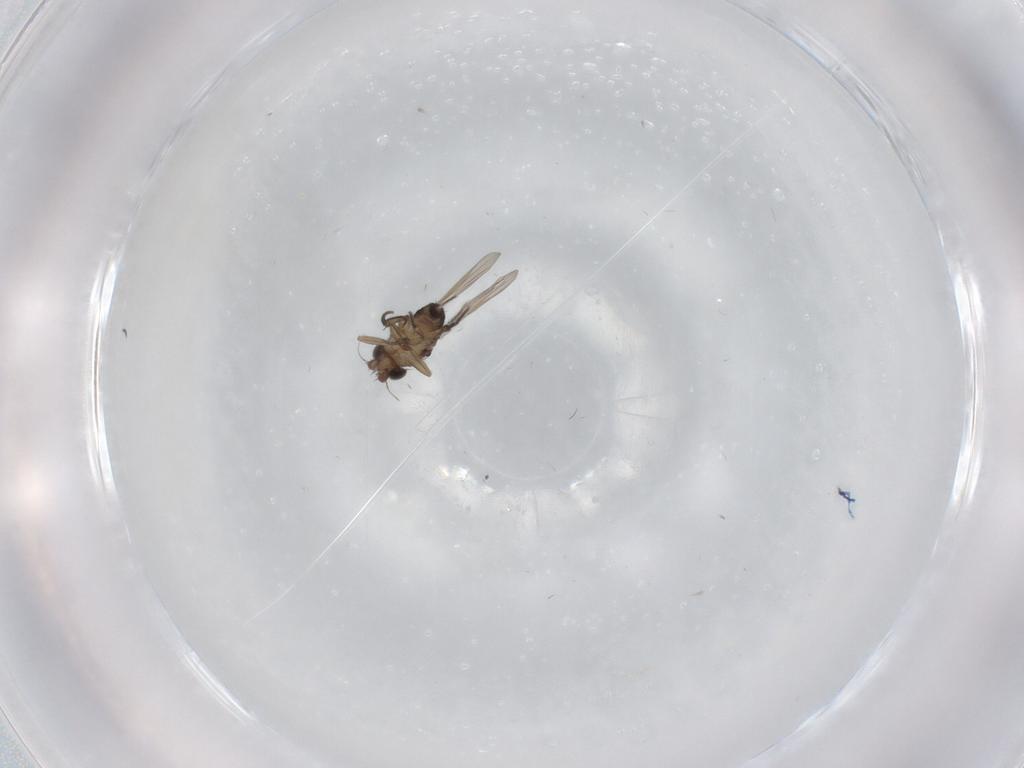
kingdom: Animalia
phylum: Arthropoda
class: Insecta
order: Diptera
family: Phoridae
